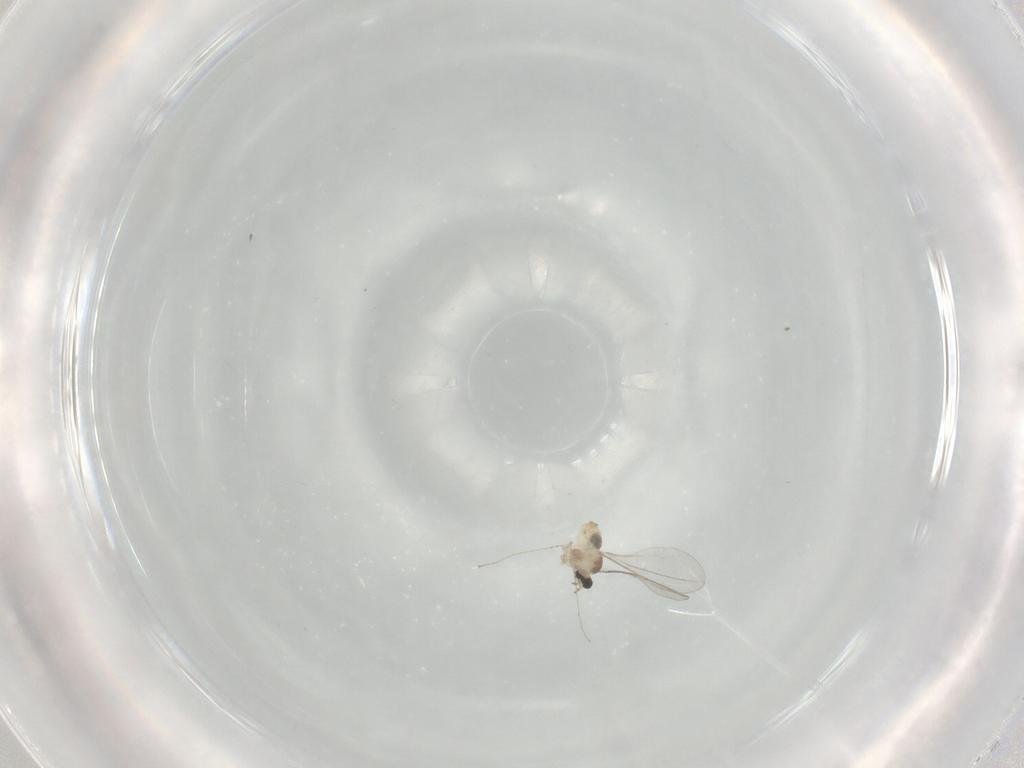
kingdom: Animalia
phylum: Arthropoda
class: Insecta
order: Diptera
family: Cecidomyiidae
